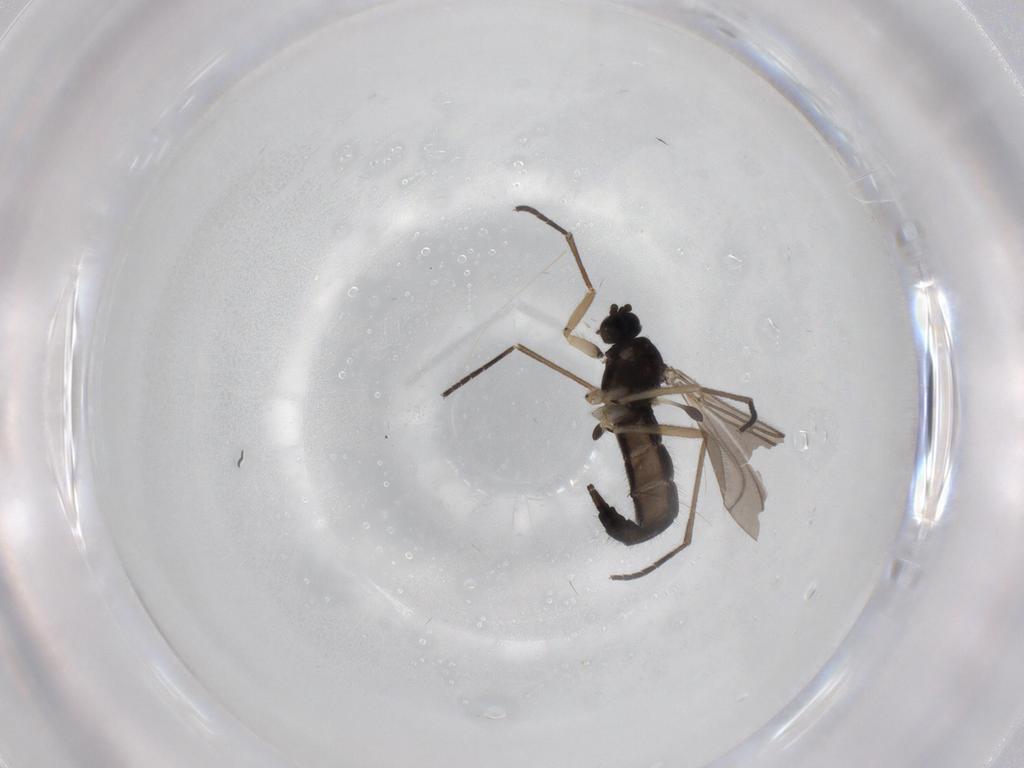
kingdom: Animalia
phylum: Arthropoda
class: Insecta
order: Diptera
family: Sciaridae
